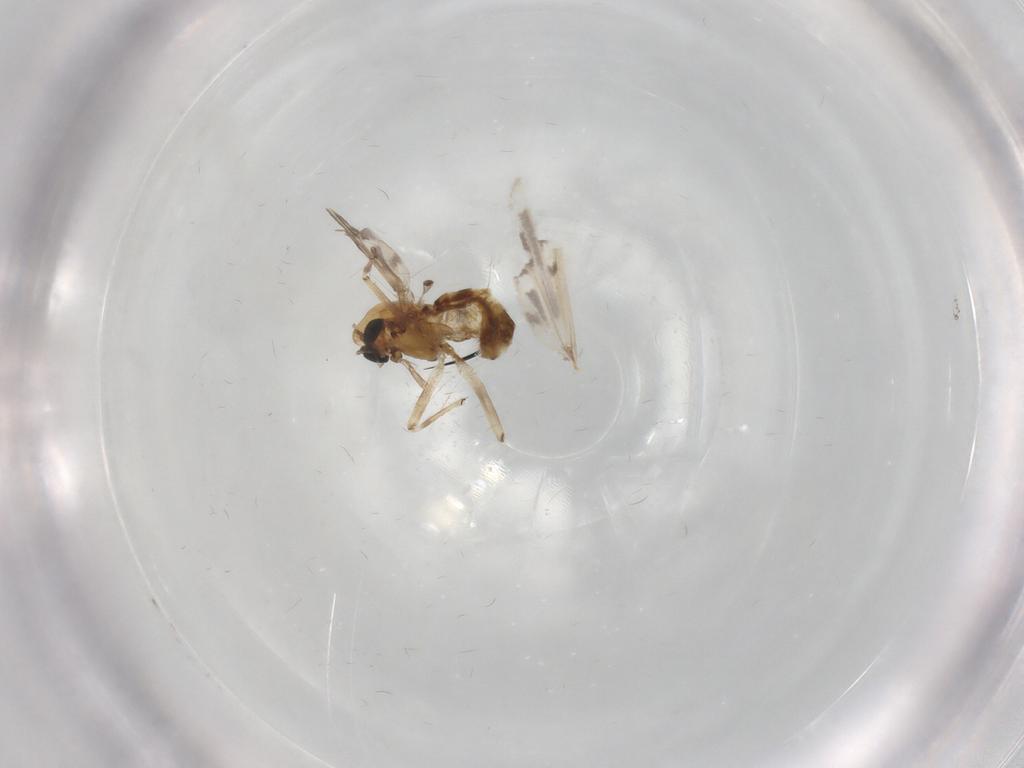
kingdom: Animalia
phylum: Arthropoda
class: Insecta
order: Diptera
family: Chironomidae
